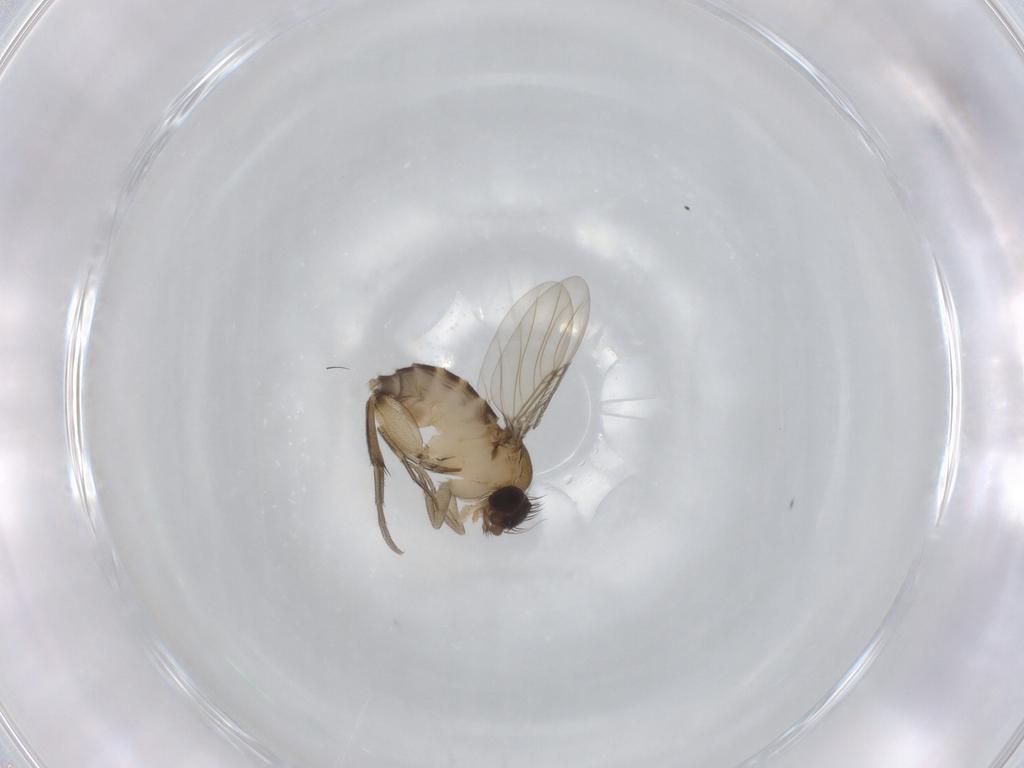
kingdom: Animalia
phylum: Arthropoda
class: Insecta
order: Diptera
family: Phoridae
